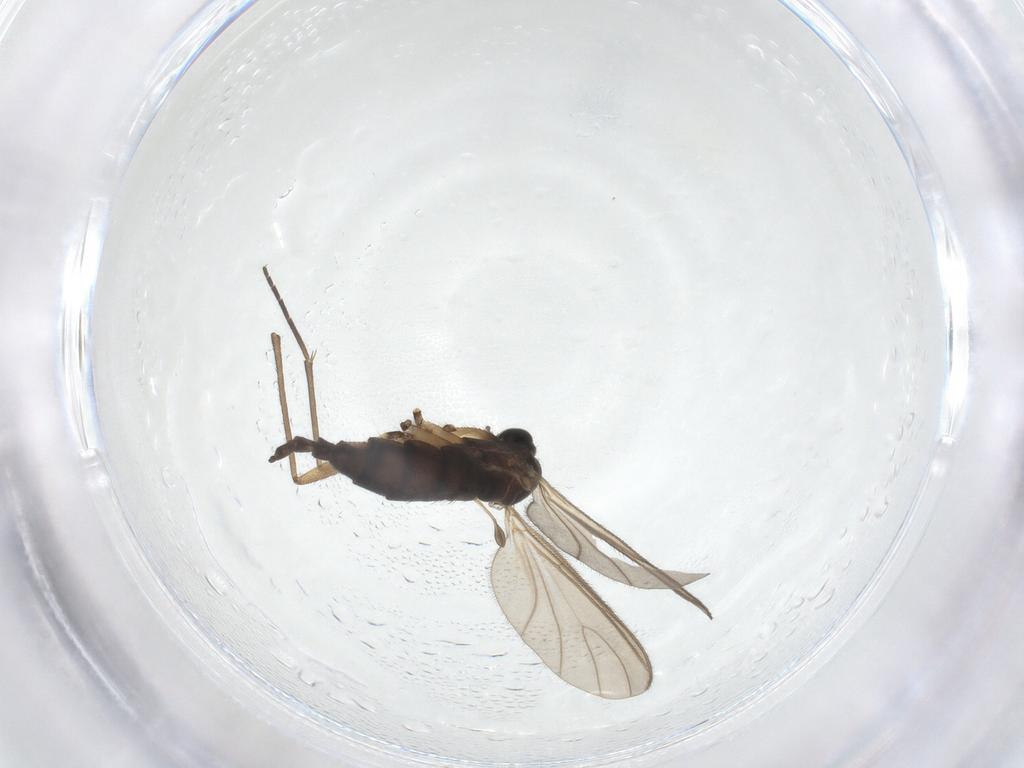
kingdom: Animalia
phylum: Arthropoda
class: Insecta
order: Diptera
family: Sciaridae
